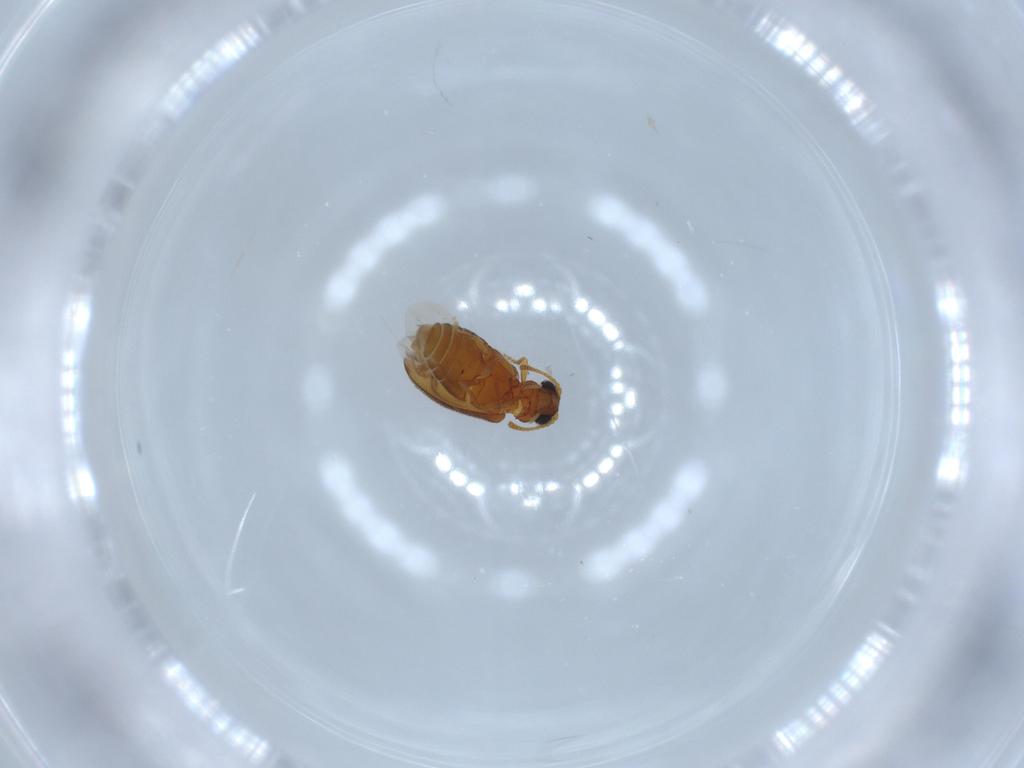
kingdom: Animalia
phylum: Arthropoda
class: Insecta
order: Coleoptera
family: Aderidae
